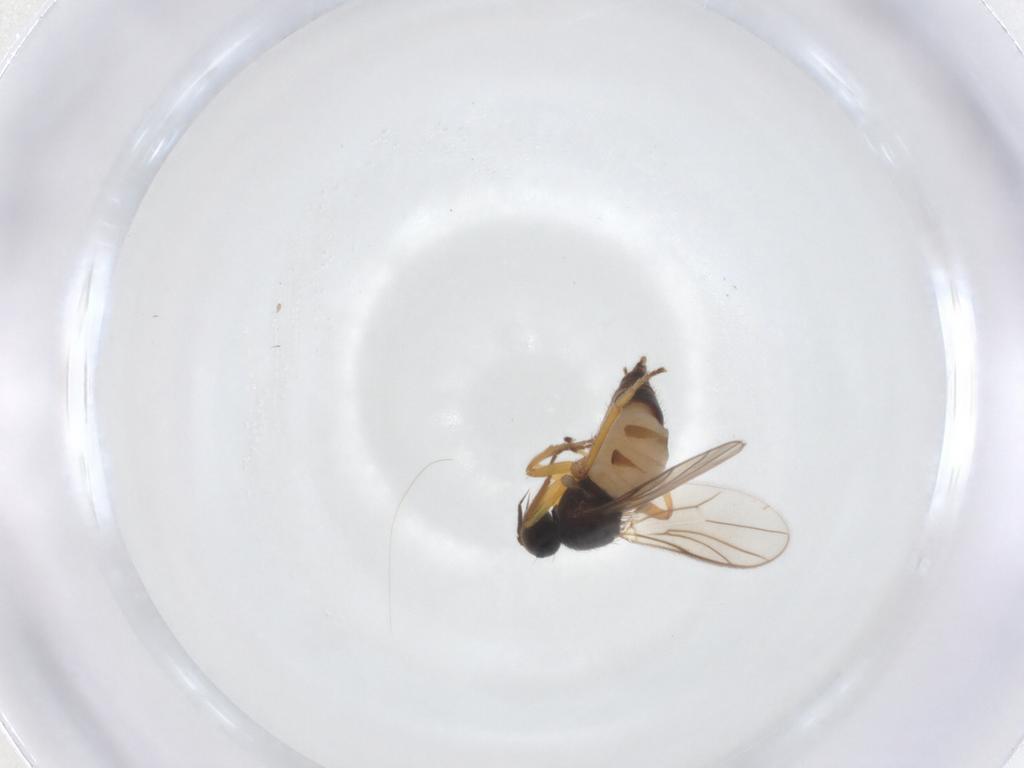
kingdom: Animalia
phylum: Arthropoda
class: Insecta
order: Diptera
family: Hybotidae
